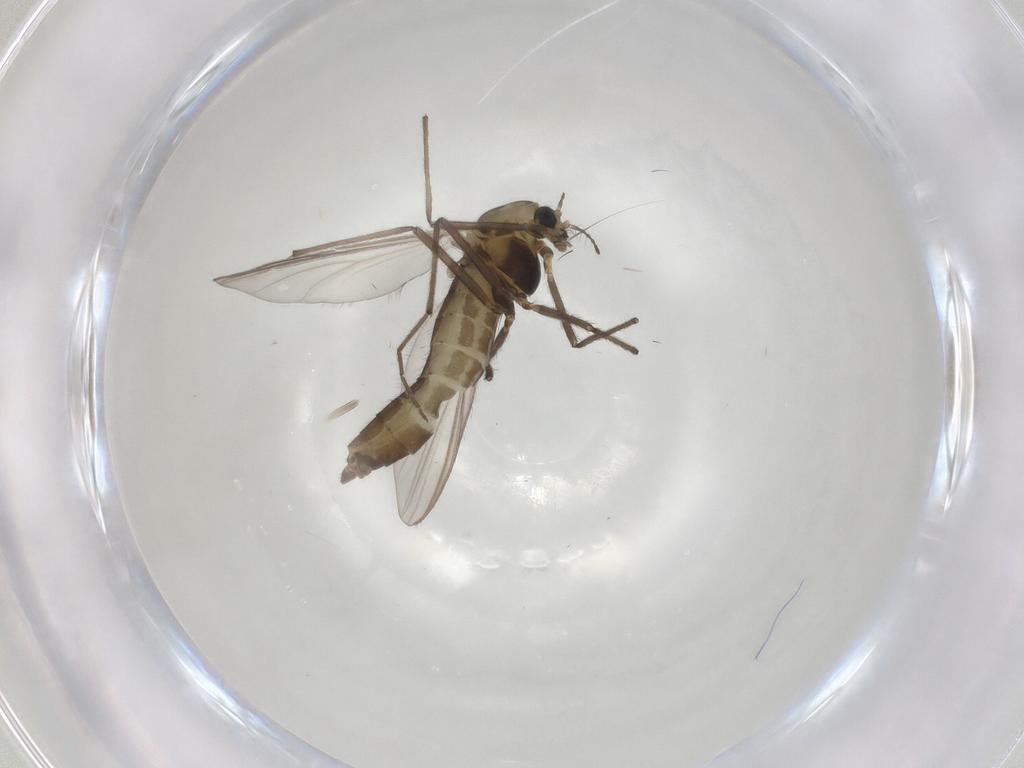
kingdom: Animalia
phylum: Arthropoda
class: Insecta
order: Diptera
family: Chironomidae
